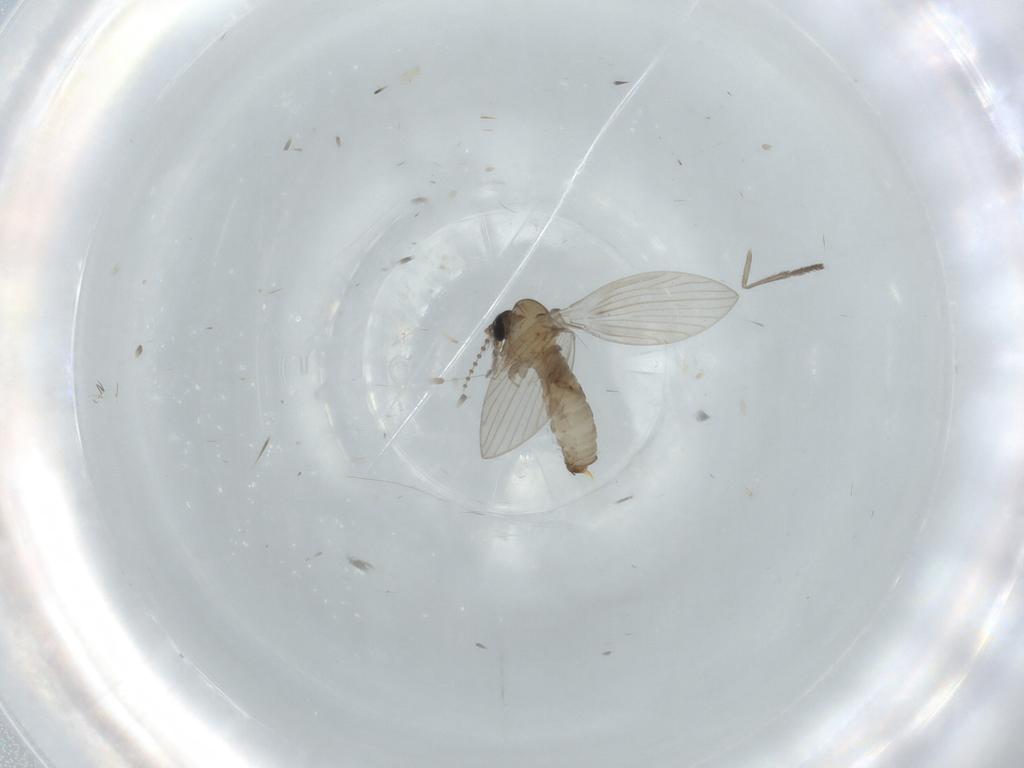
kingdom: Animalia
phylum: Arthropoda
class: Insecta
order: Diptera
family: Psychodidae
